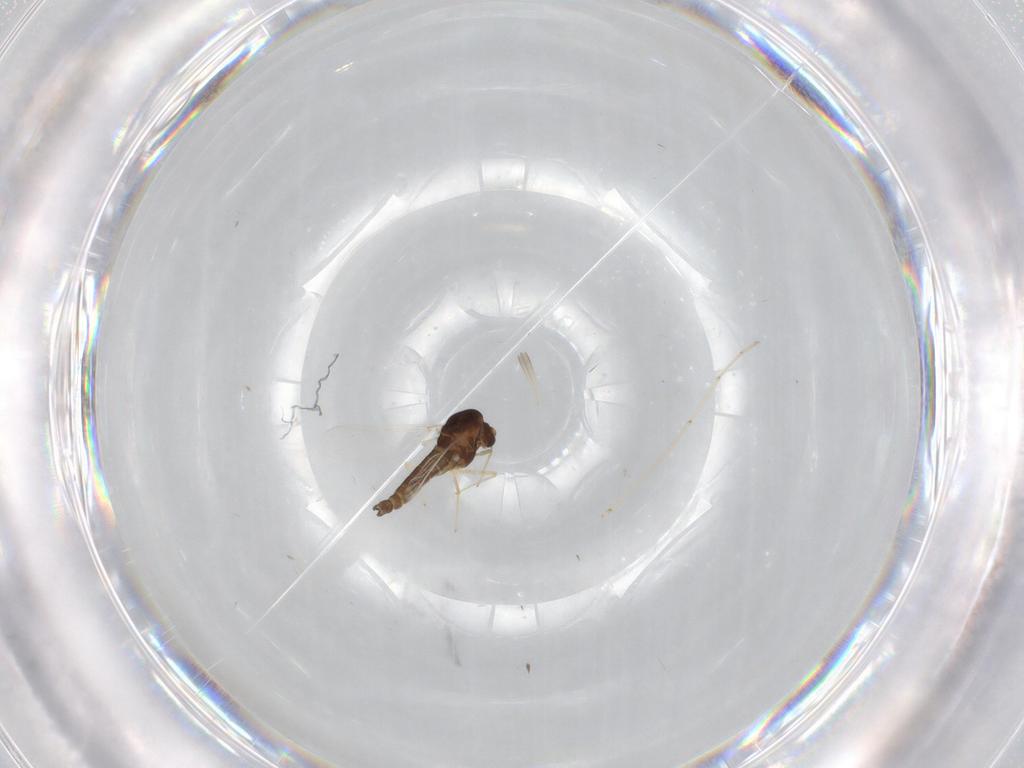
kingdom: Animalia
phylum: Arthropoda
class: Insecta
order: Diptera
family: Chironomidae
